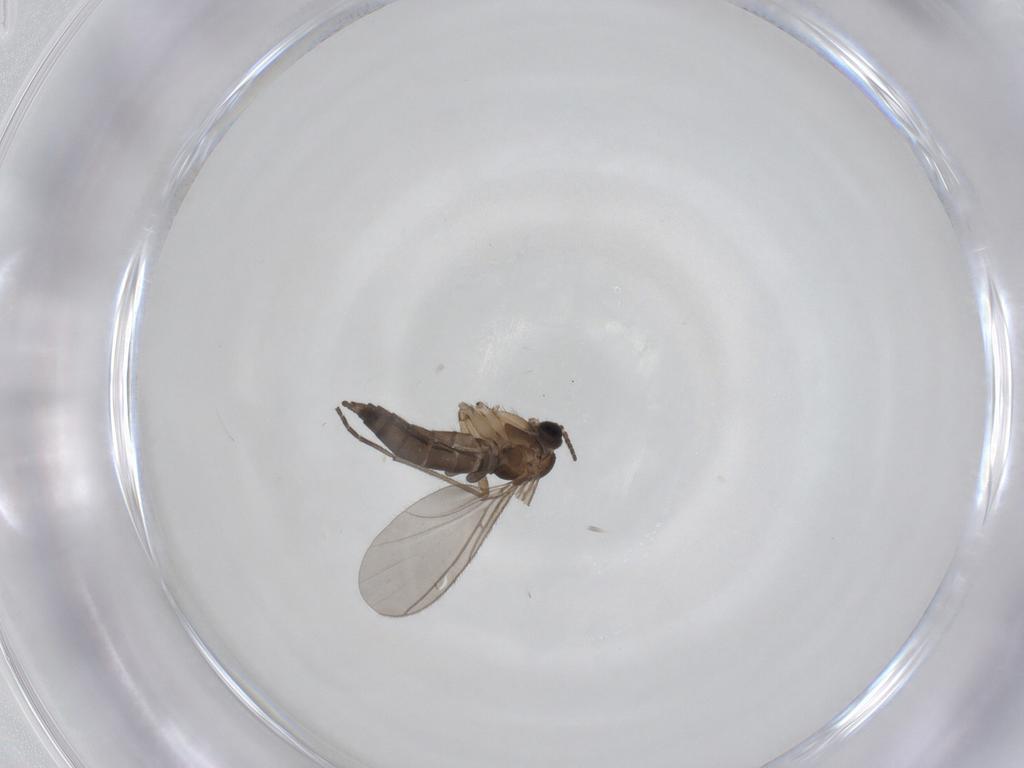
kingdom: Animalia
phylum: Arthropoda
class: Insecta
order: Diptera
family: Sciaridae
